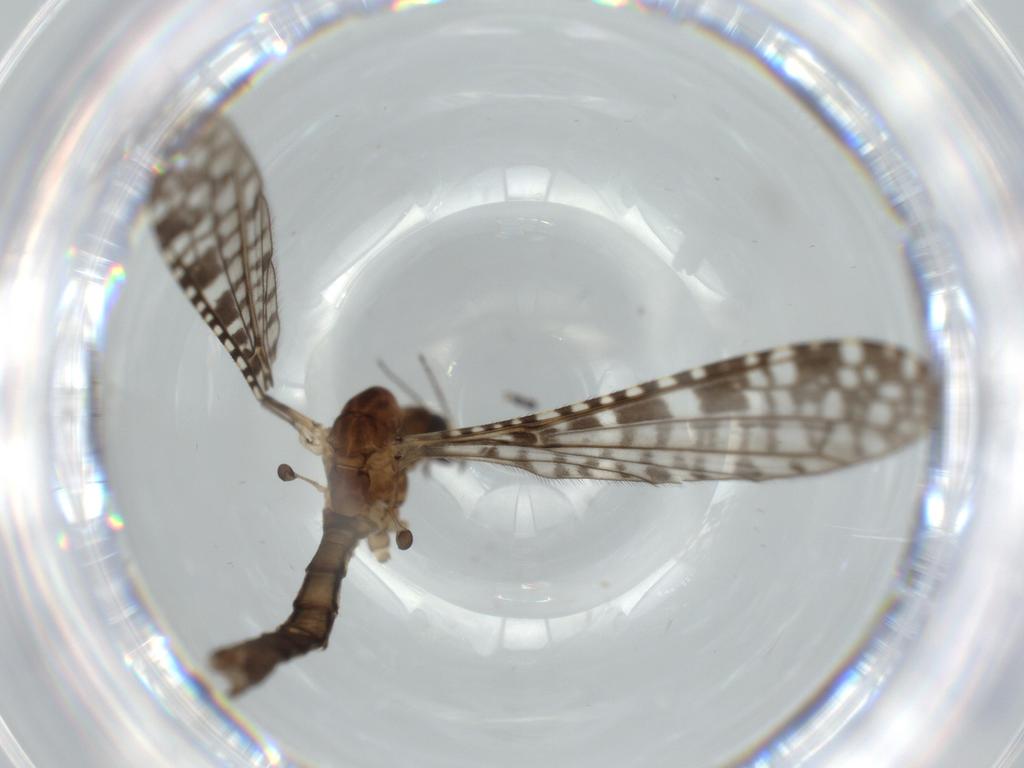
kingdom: Animalia
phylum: Arthropoda
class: Insecta
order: Diptera
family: Sciaridae
